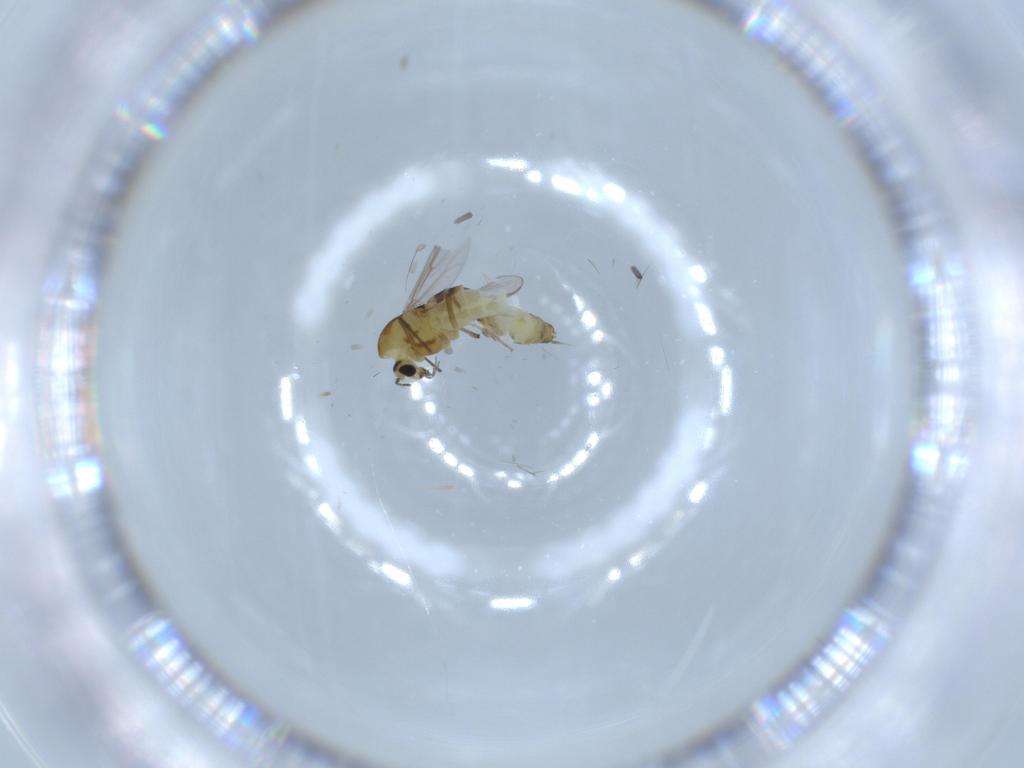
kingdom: Animalia
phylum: Arthropoda
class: Insecta
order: Diptera
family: Chironomidae
